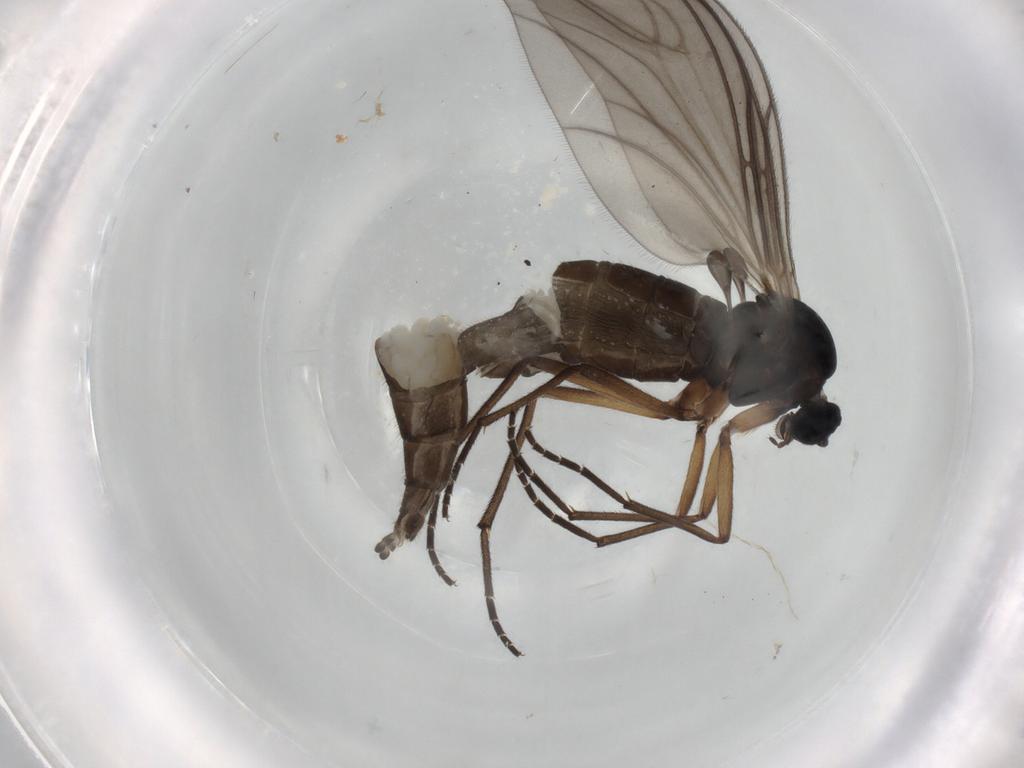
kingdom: Animalia
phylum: Arthropoda
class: Insecta
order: Diptera
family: Sciaridae
